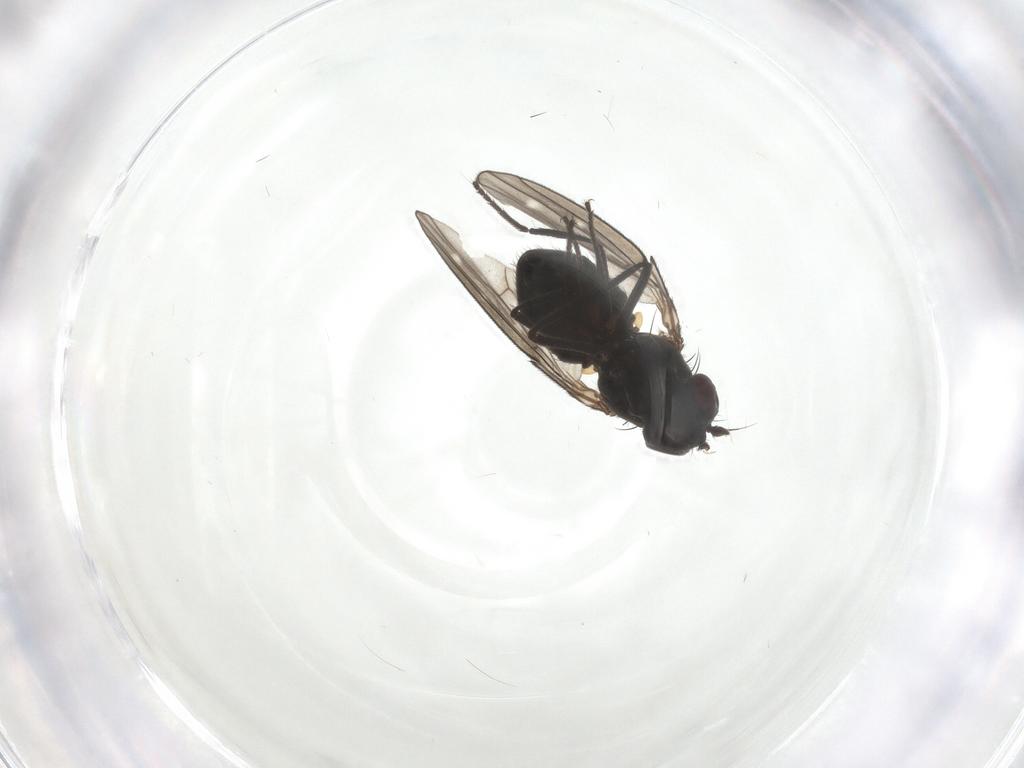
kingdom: Animalia
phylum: Arthropoda
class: Insecta
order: Diptera
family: Ephydridae
